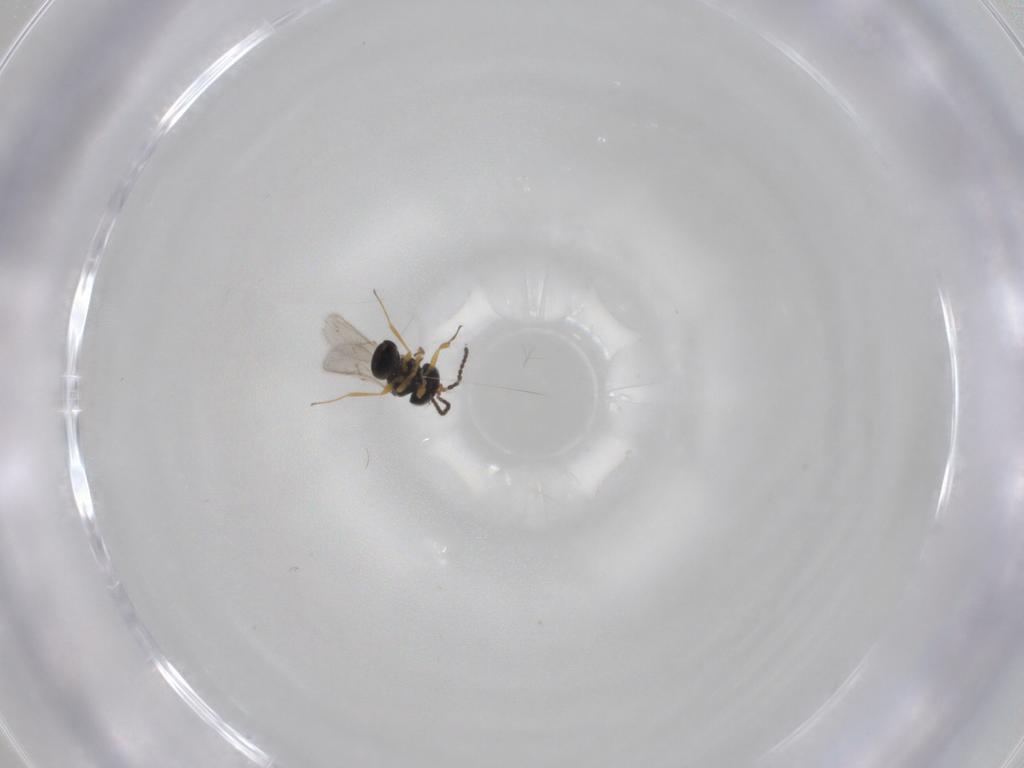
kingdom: Animalia
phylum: Arthropoda
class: Insecta
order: Hymenoptera
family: Scelionidae
